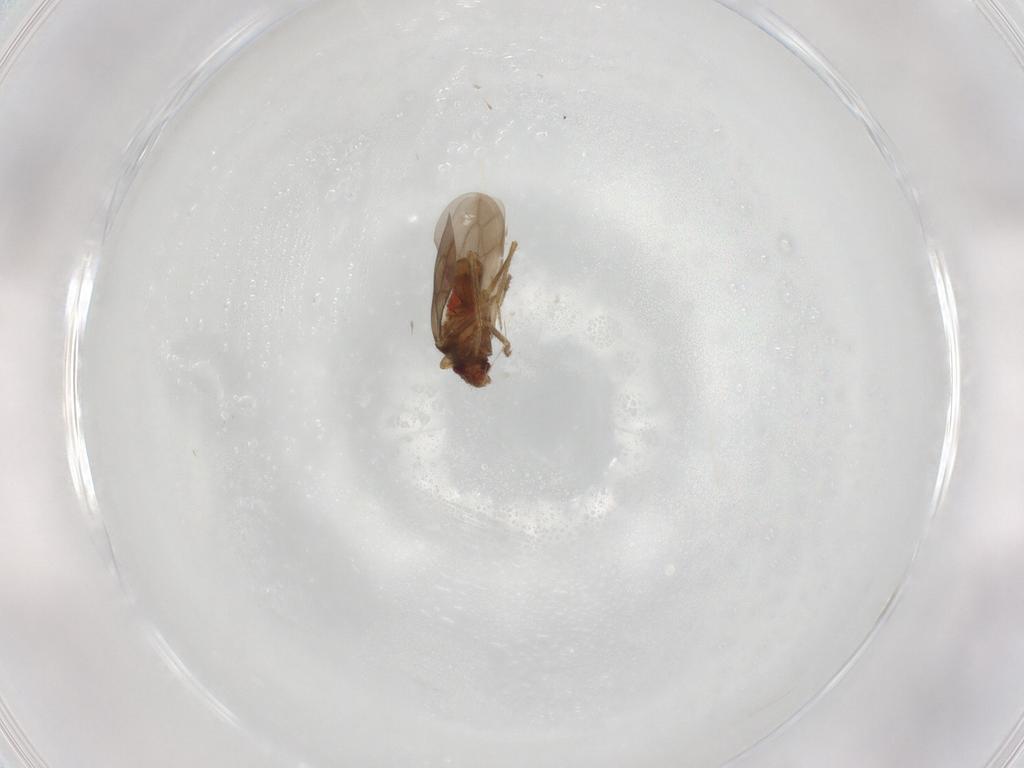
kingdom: Animalia
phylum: Arthropoda
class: Insecta
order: Hemiptera
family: Ceratocombidae
